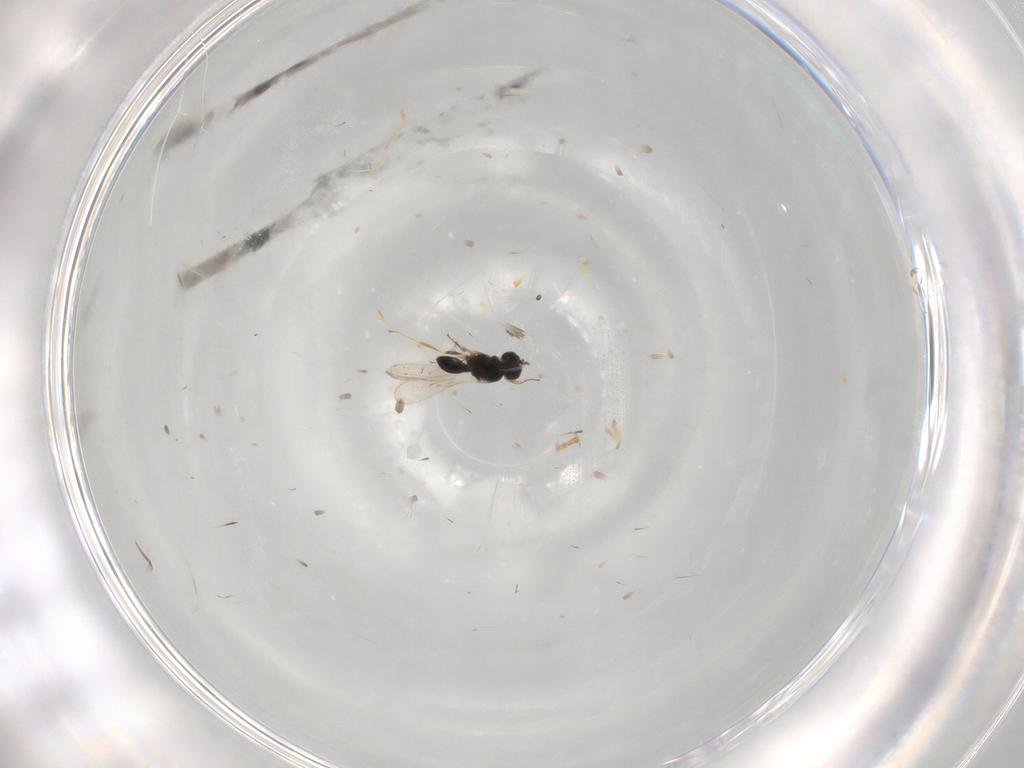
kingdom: Animalia
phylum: Arthropoda
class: Insecta
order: Hymenoptera
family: Scelionidae
